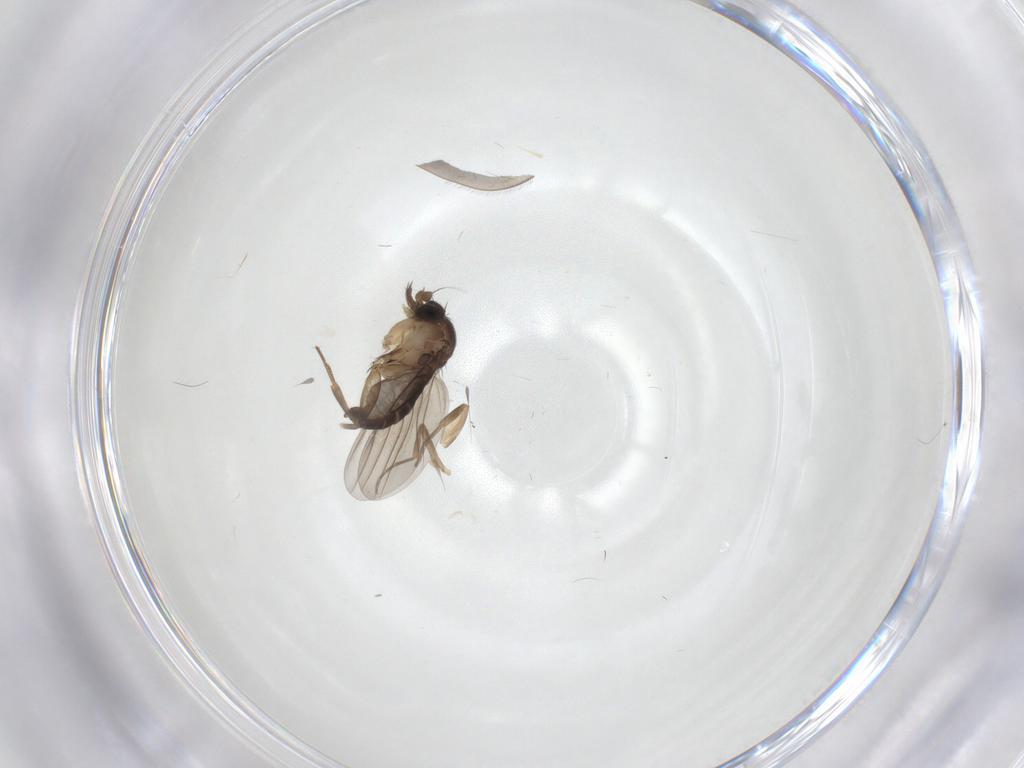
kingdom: Animalia
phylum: Arthropoda
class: Insecta
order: Diptera
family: Phoridae
